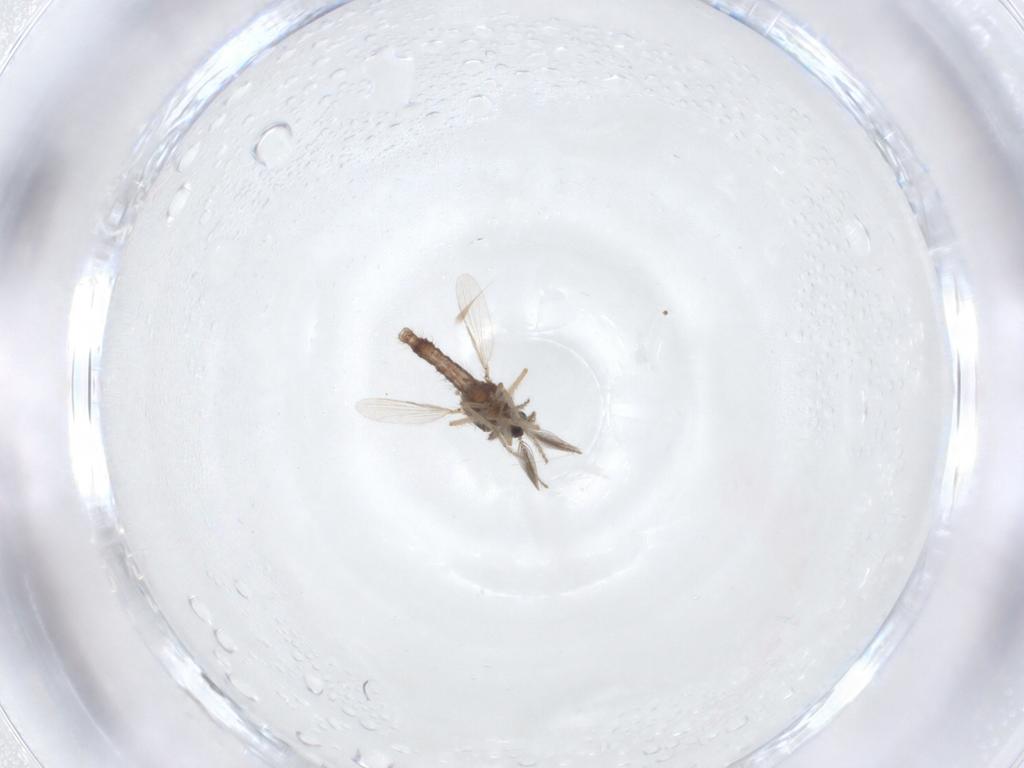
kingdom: Animalia
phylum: Arthropoda
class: Insecta
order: Diptera
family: Ceratopogonidae
